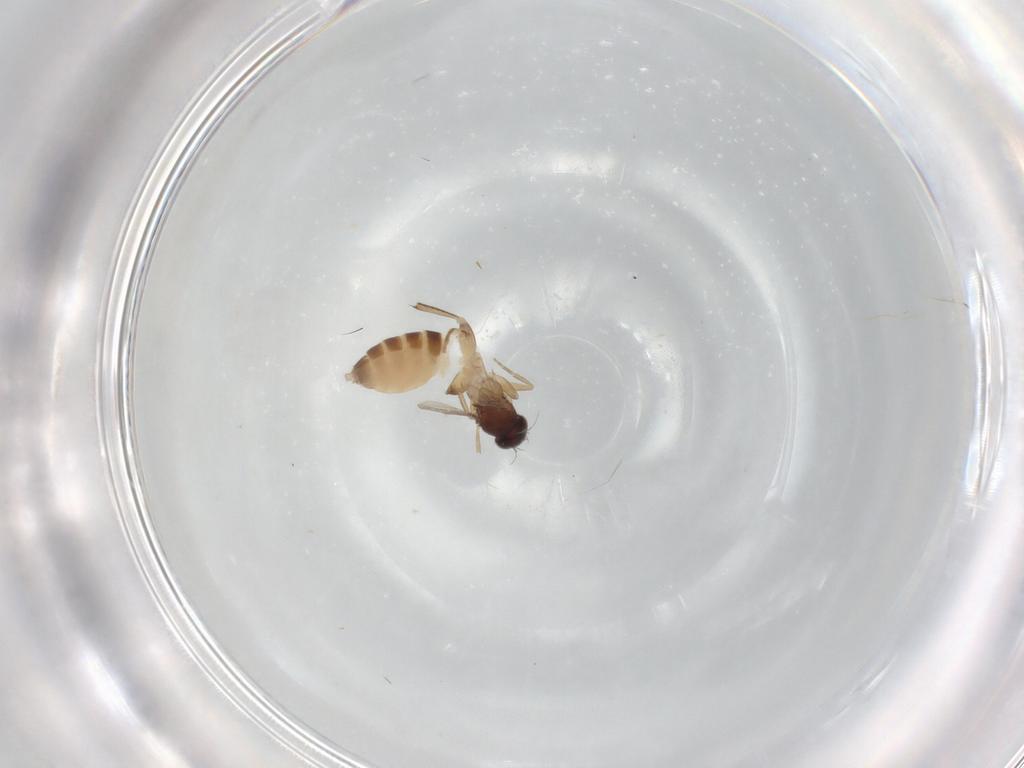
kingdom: Animalia
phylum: Arthropoda
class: Insecta
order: Diptera
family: Phoridae
